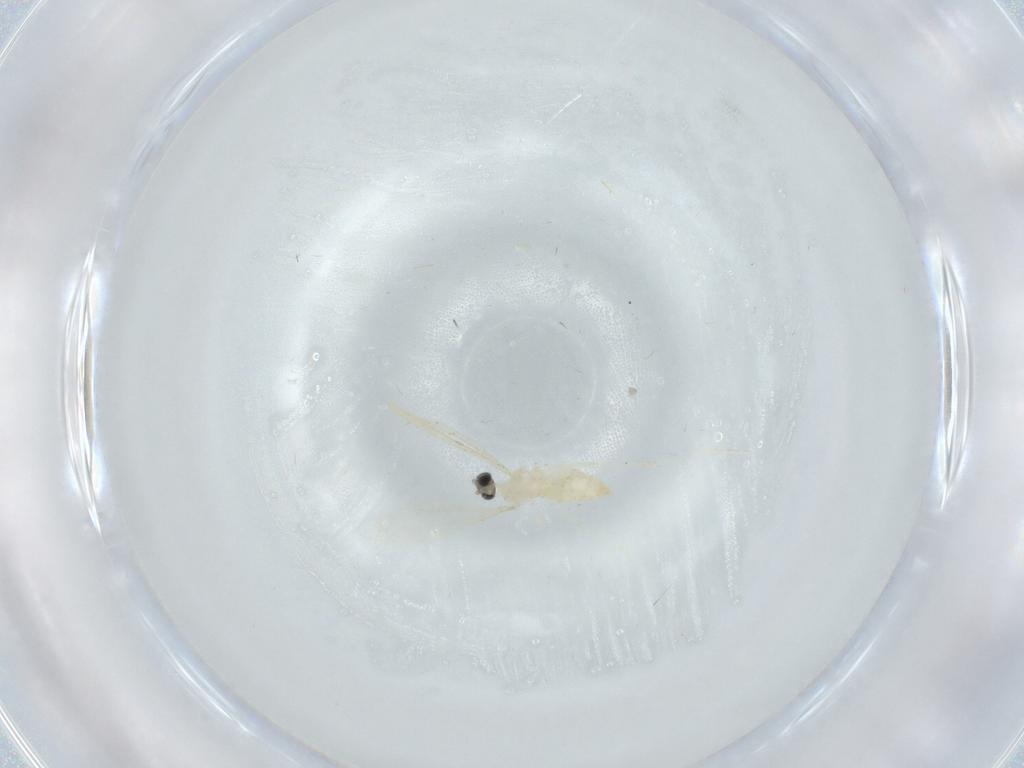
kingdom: Animalia
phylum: Arthropoda
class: Insecta
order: Diptera
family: Cecidomyiidae
